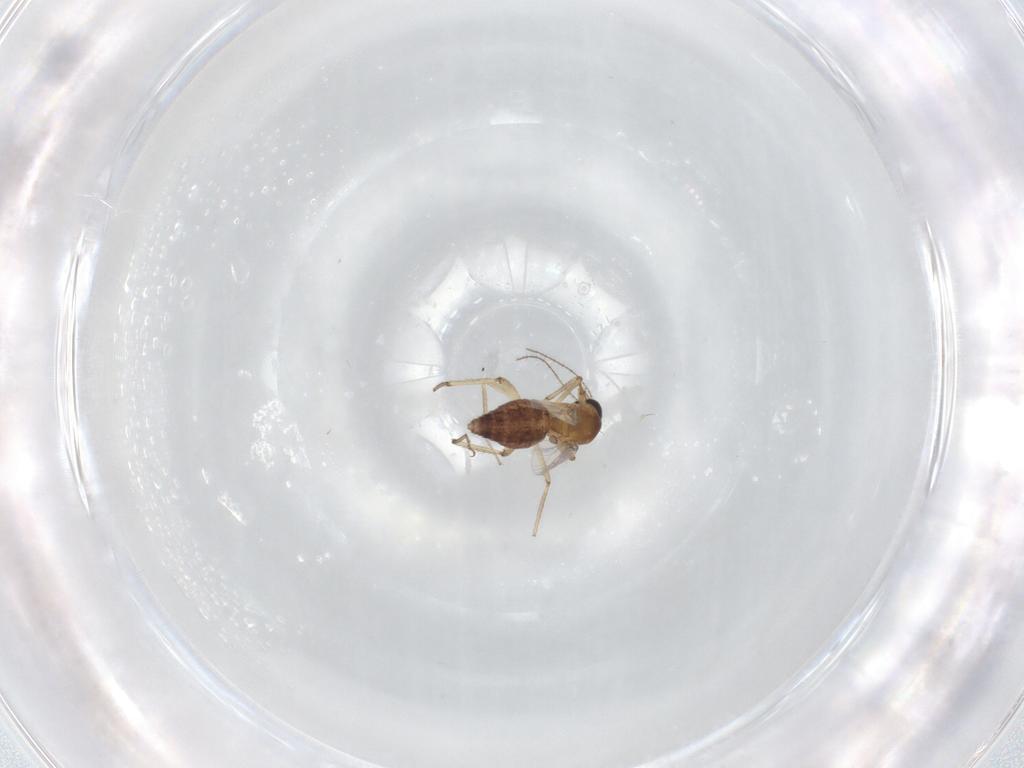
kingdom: Animalia
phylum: Arthropoda
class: Insecta
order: Diptera
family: Ceratopogonidae
